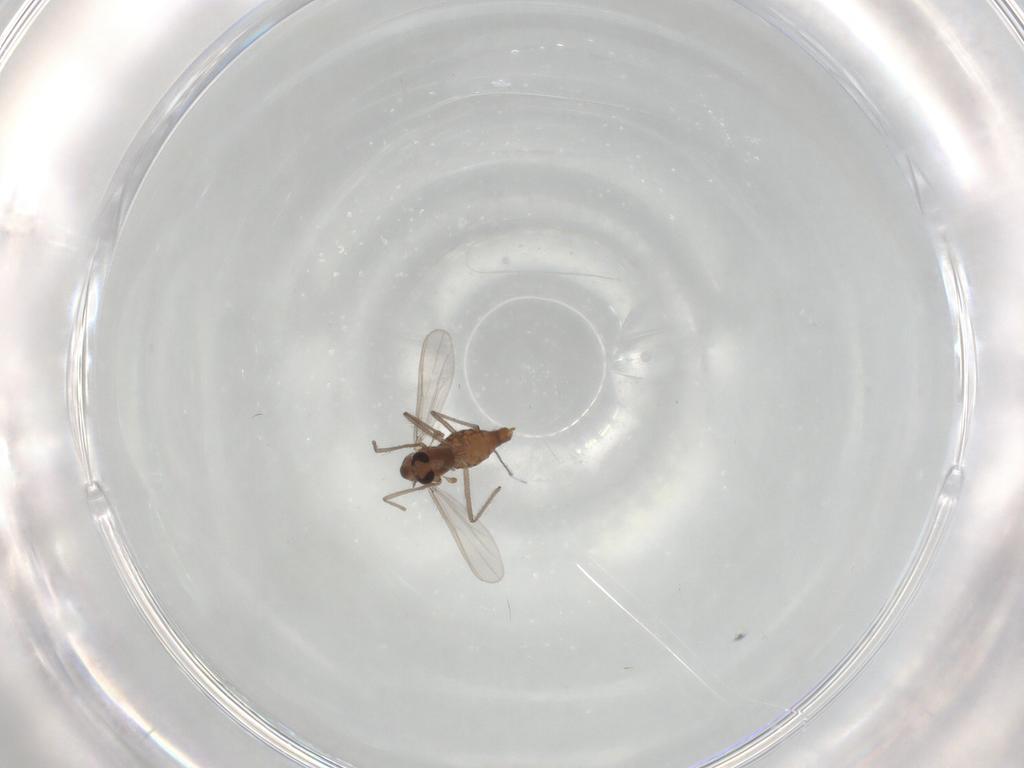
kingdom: Animalia
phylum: Arthropoda
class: Insecta
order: Diptera
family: Chironomidae
